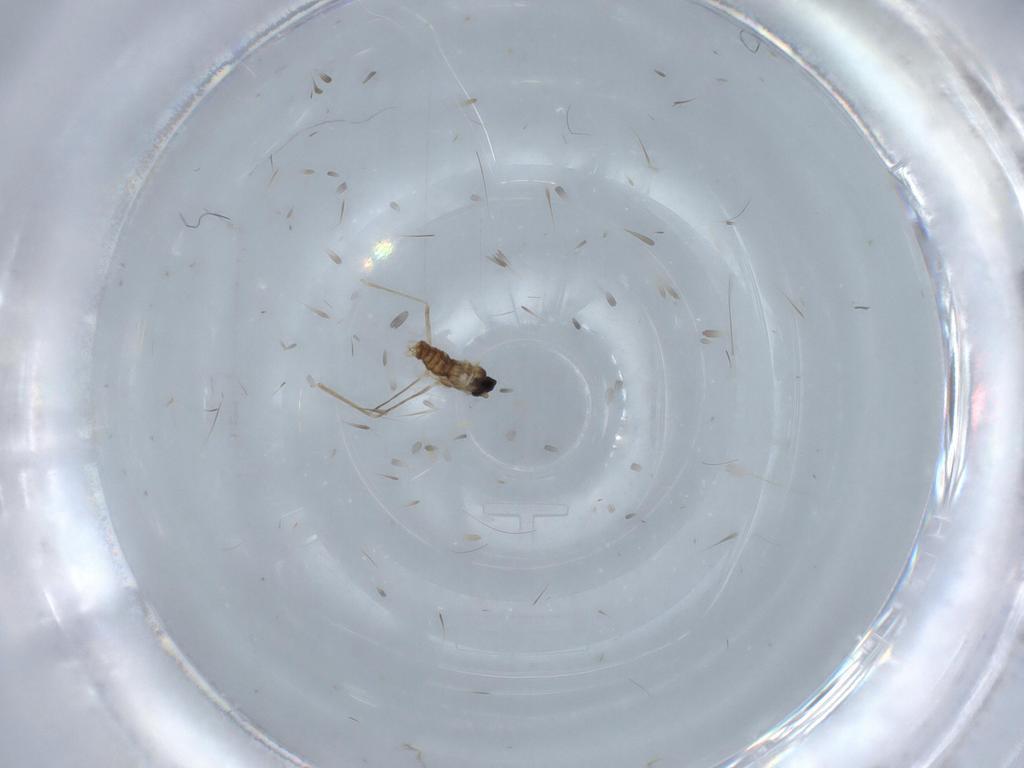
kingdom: Animalia
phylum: Arthropoda
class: Insecta
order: Diptera
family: Cecidomyiidae
